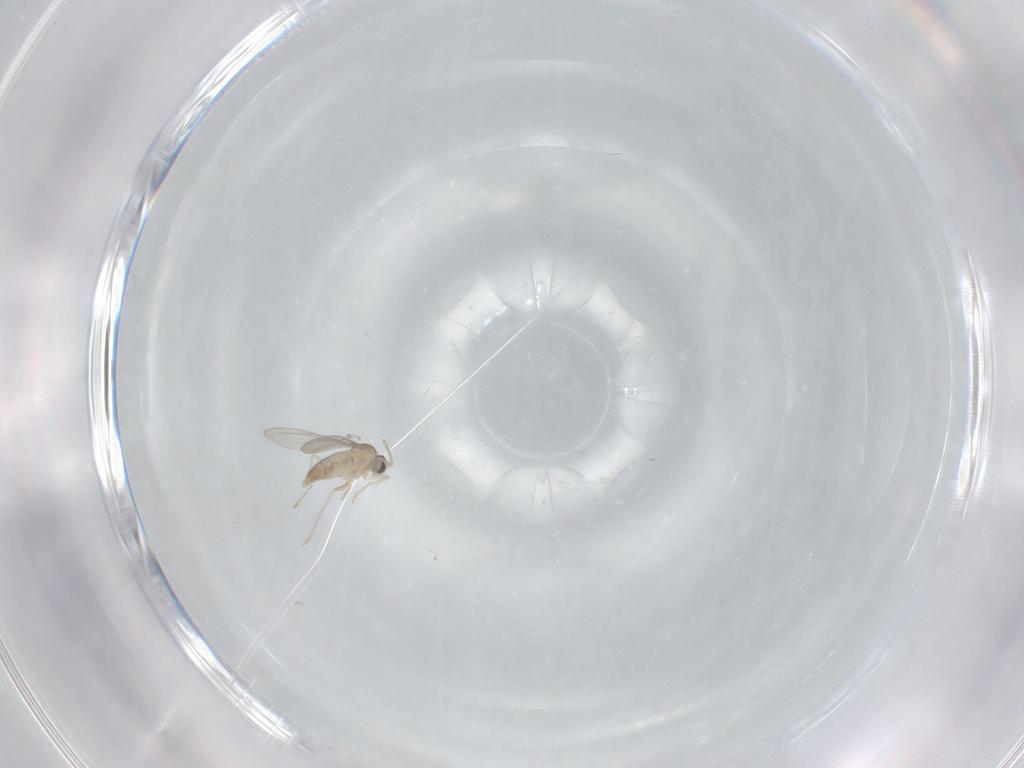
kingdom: Animalia
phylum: Arthropoda
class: Insecta
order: Diptera
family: Cecidomyiidae
